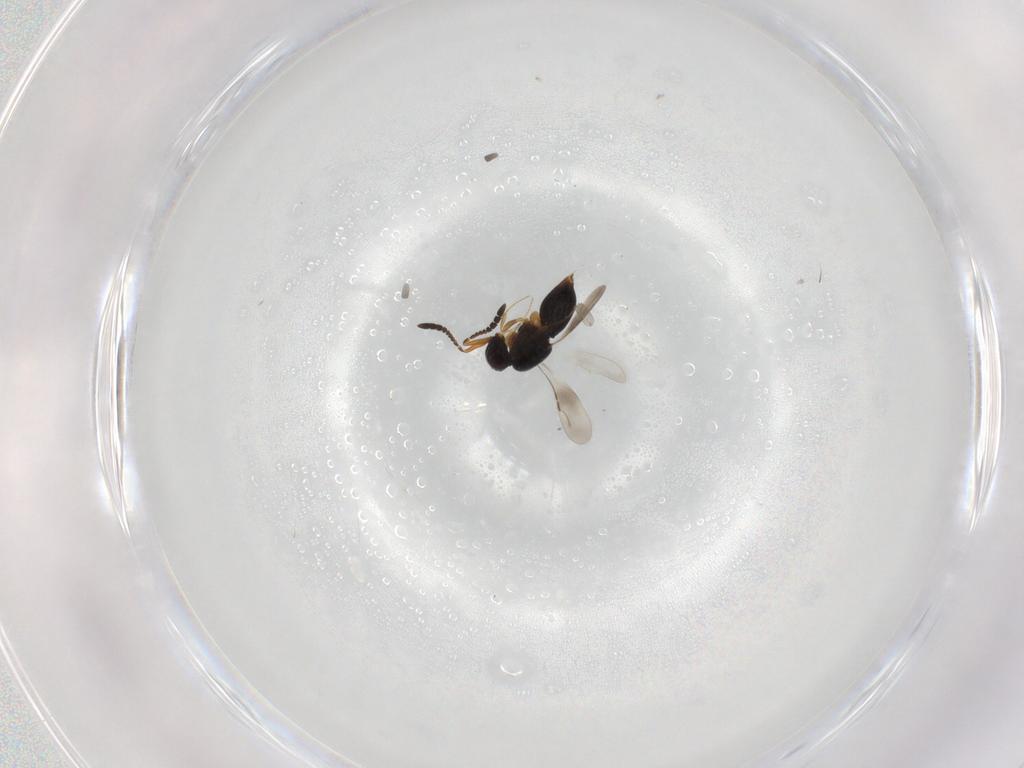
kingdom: Animalia
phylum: Arthropoda
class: Insecta
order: Hymenoptera
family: Ceraphronidae
